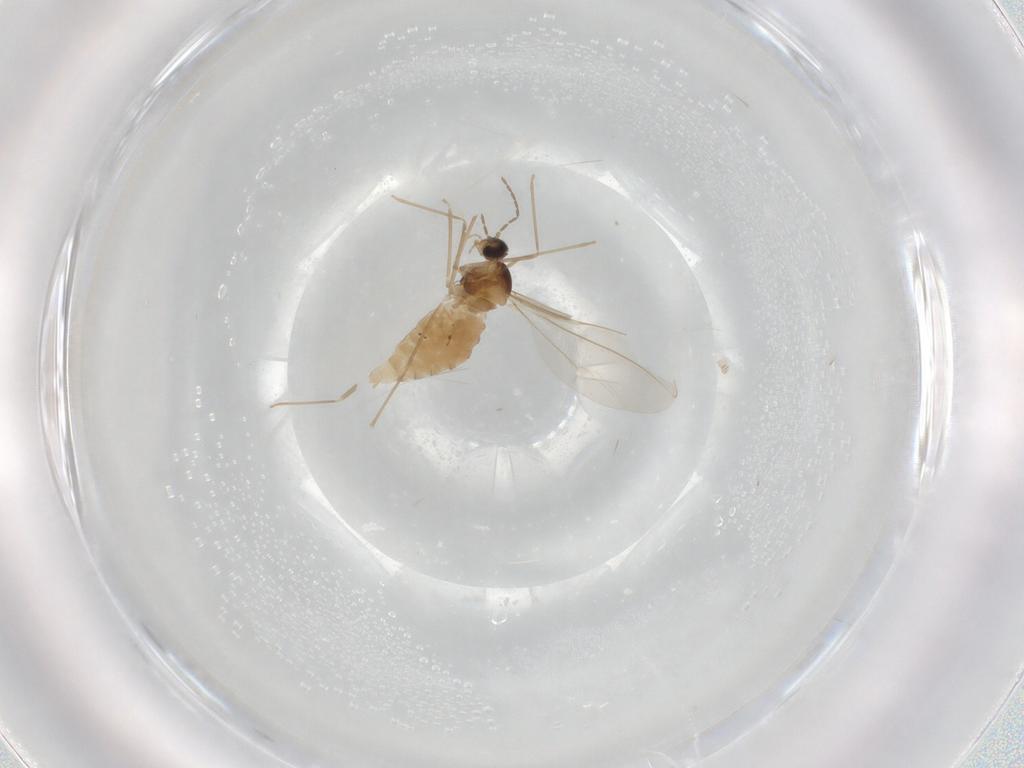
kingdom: Animalia
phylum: Arthropoda
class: Insecta
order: Diptera
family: Cecidomyiidae
